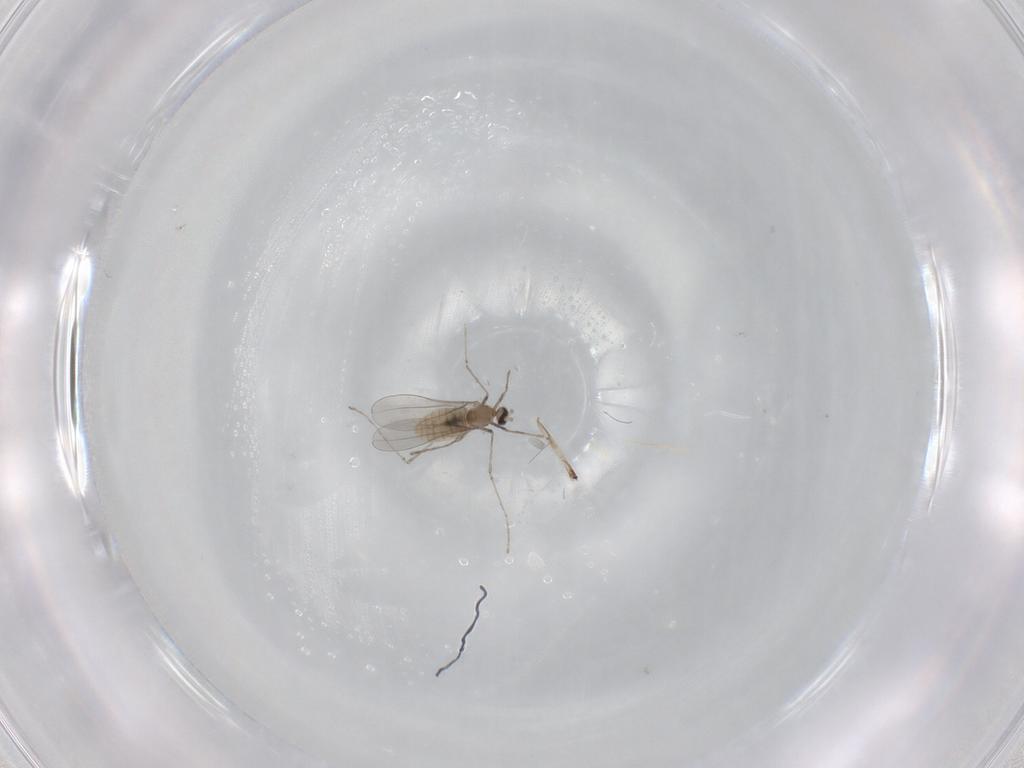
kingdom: Animalia
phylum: Arthropoda
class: Insecta
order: Diptera
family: Cecidomyiidae
